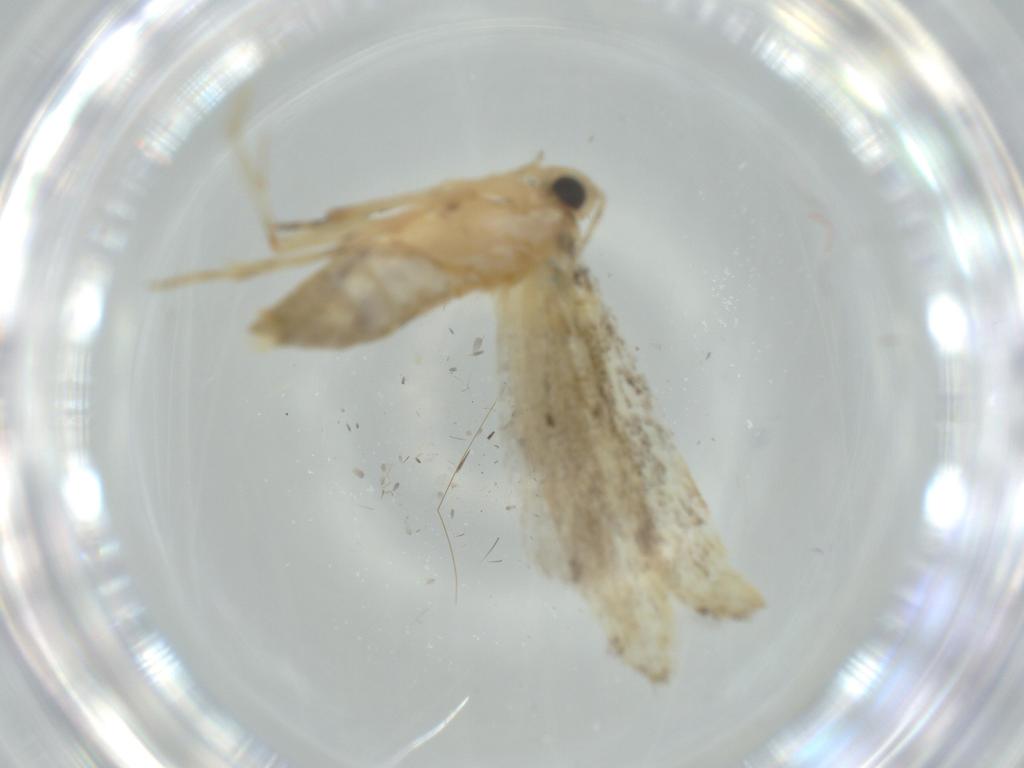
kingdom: Animalia
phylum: Arthropoda
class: Insecta
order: Lepidoptera
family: Autostichidae
